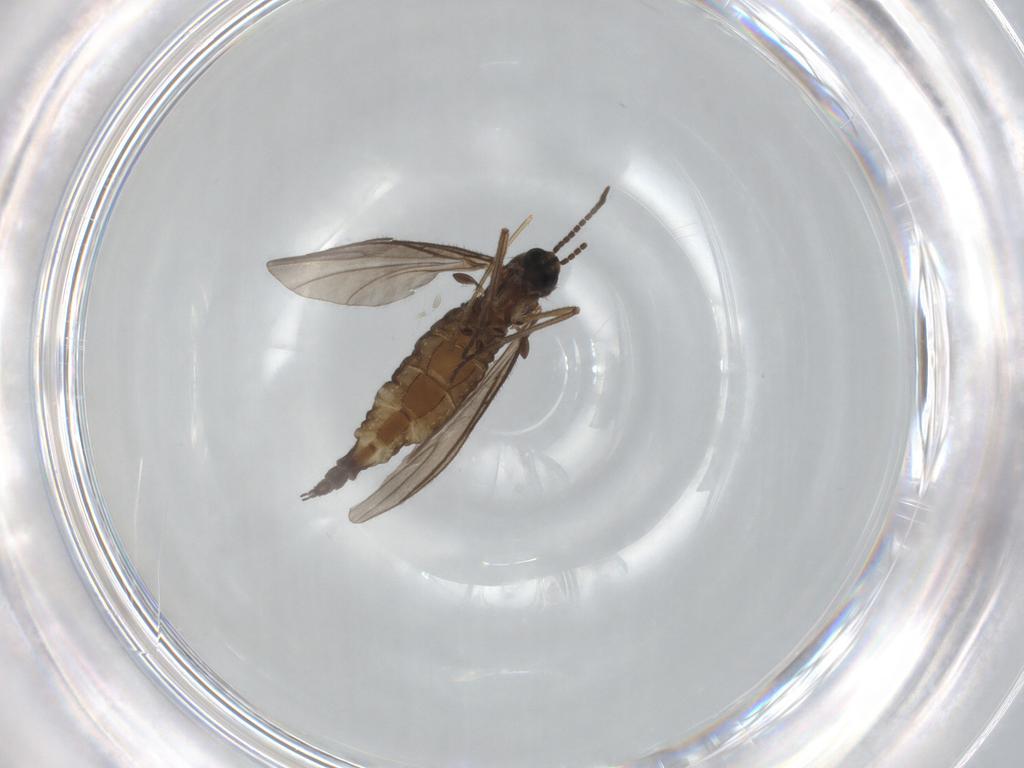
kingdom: Animalia
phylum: Arthropoda
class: Insecta
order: Diptera
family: Sciaridae
